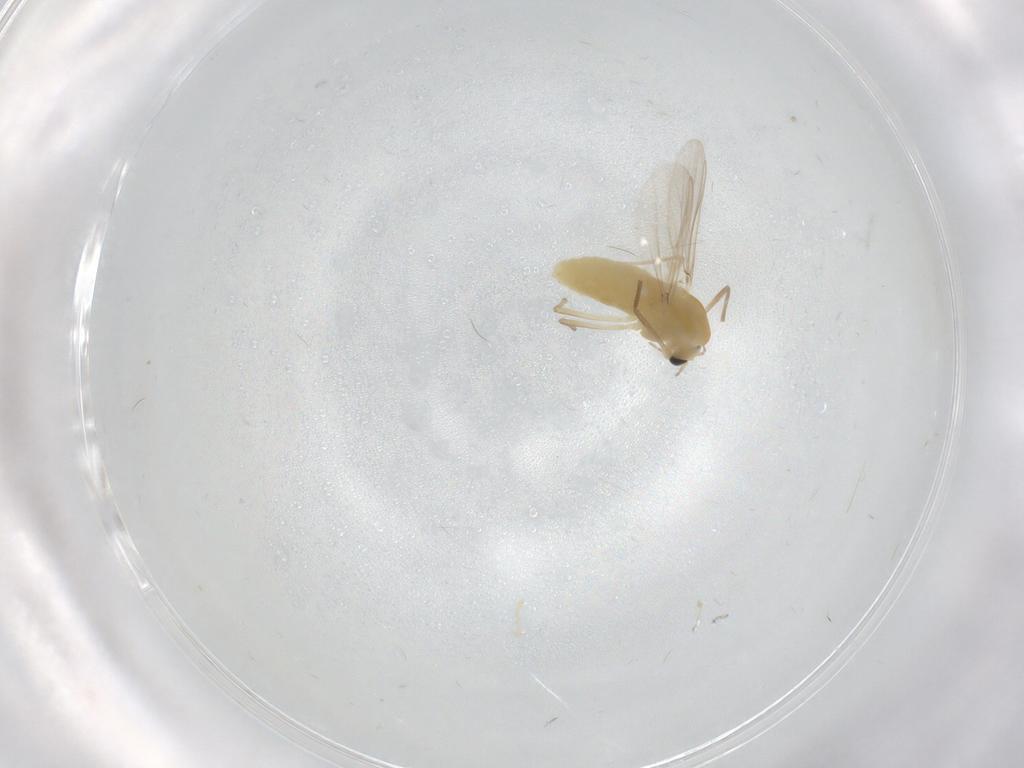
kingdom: Animalia
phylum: Arthropoda
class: Insecta
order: Diptera
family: Chironomidae
